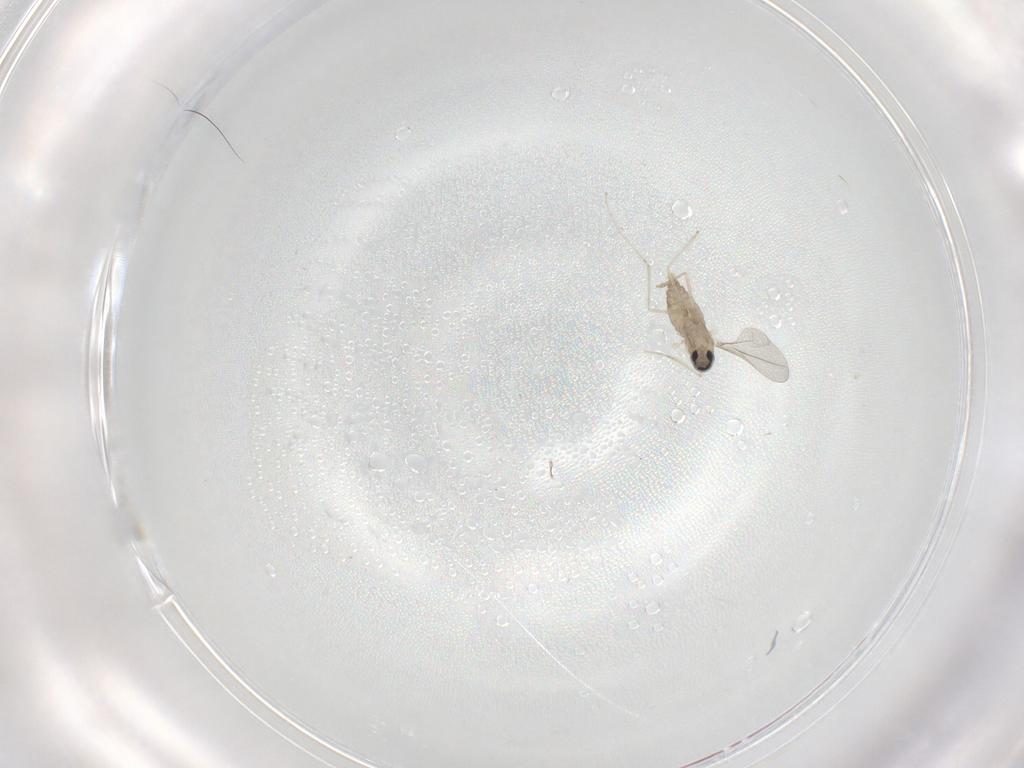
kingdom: Animalia
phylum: Arthropoda
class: Insecta
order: Diptera
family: Cecidomyiidae
